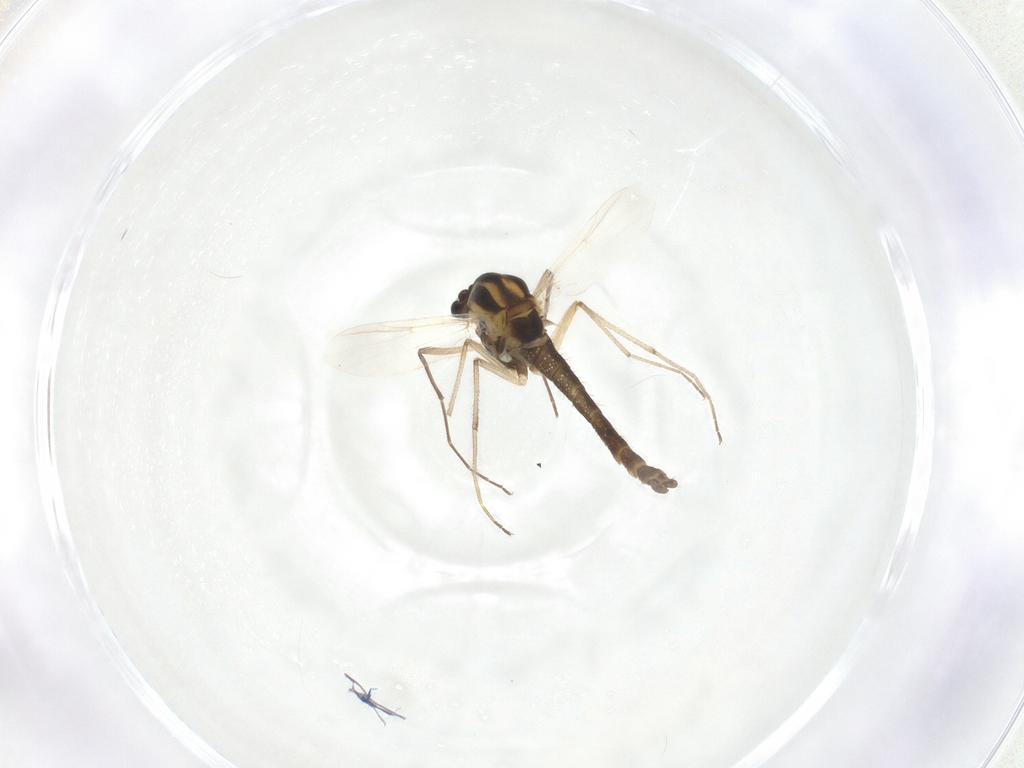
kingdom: Animalia
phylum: Arthropoda
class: Insecta
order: Diptera
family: Chironomidae
